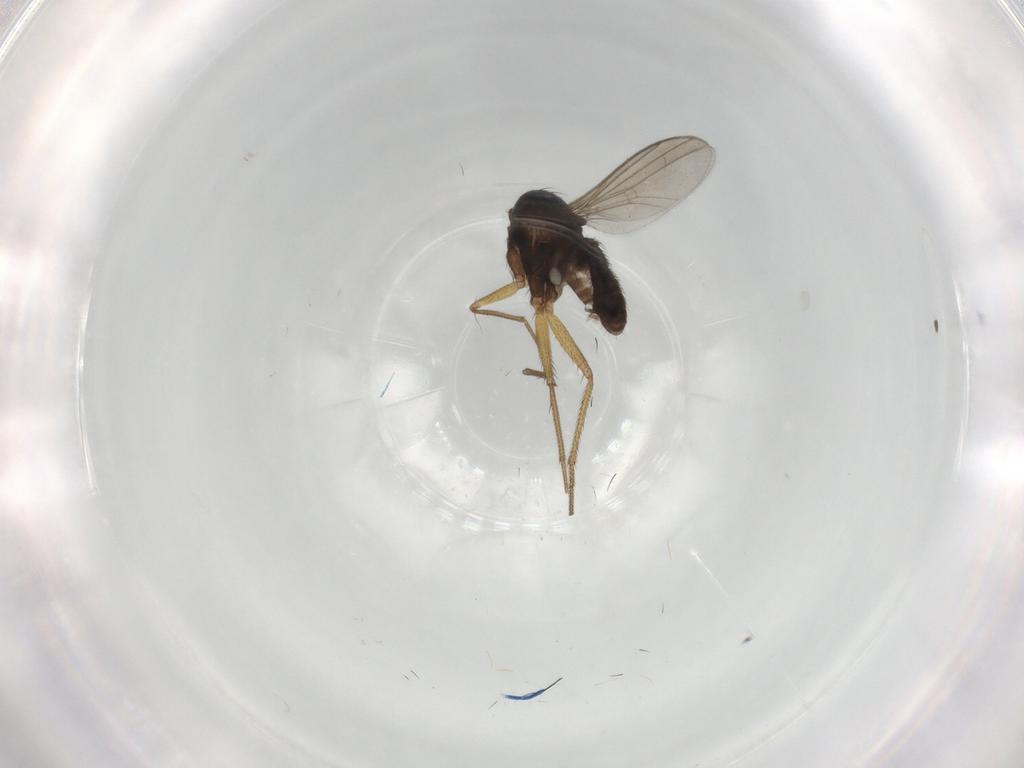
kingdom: Animalia
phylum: Arthropoda
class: Insecta
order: Diptera
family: Dolichopodidae
